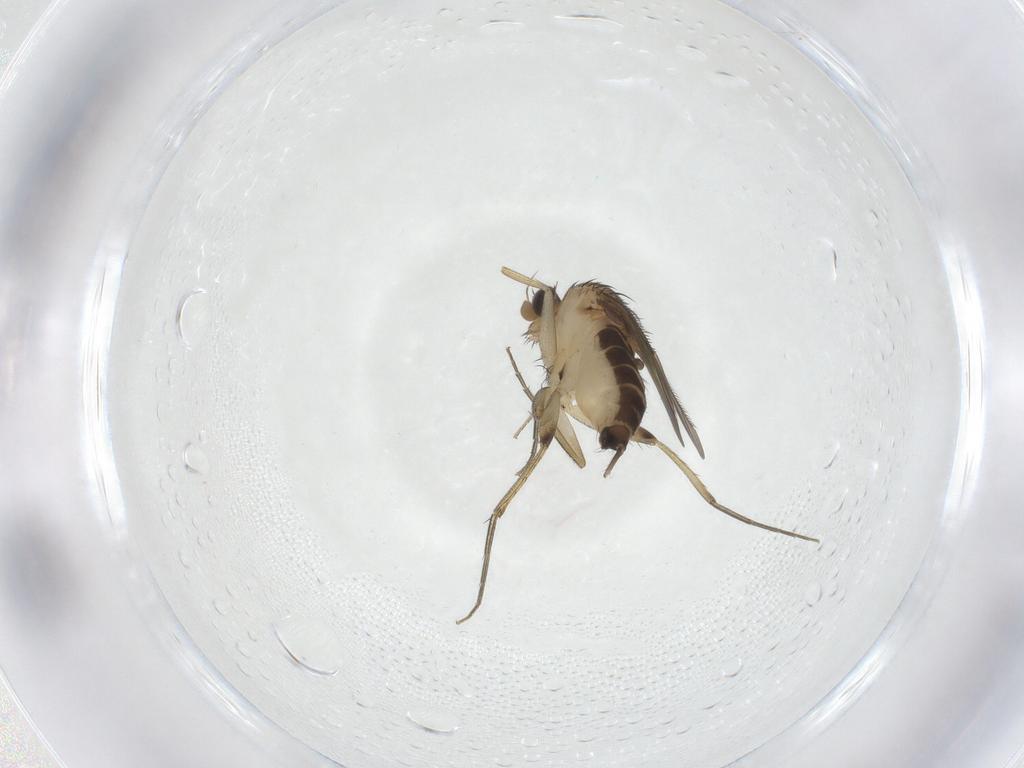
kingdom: Animalia
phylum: Arthropoda
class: Insecta
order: Diptera
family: Phoridae
